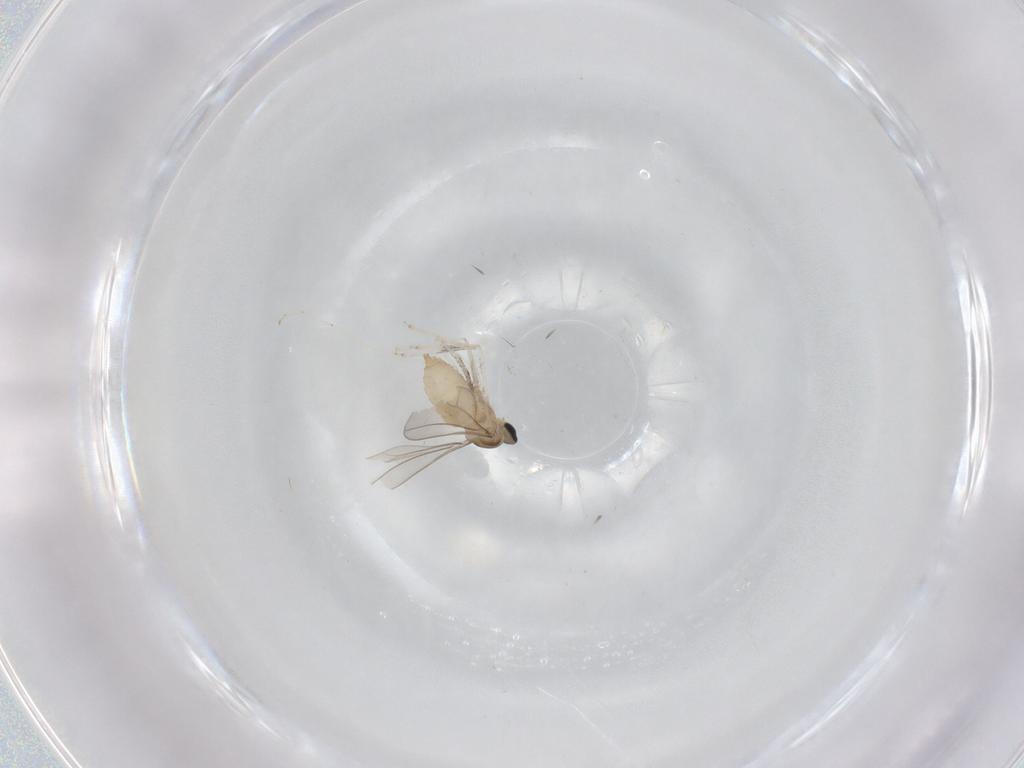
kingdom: Animalia
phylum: Arthropoda
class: Insecta
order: Diptera
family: Cecidomyiidae
